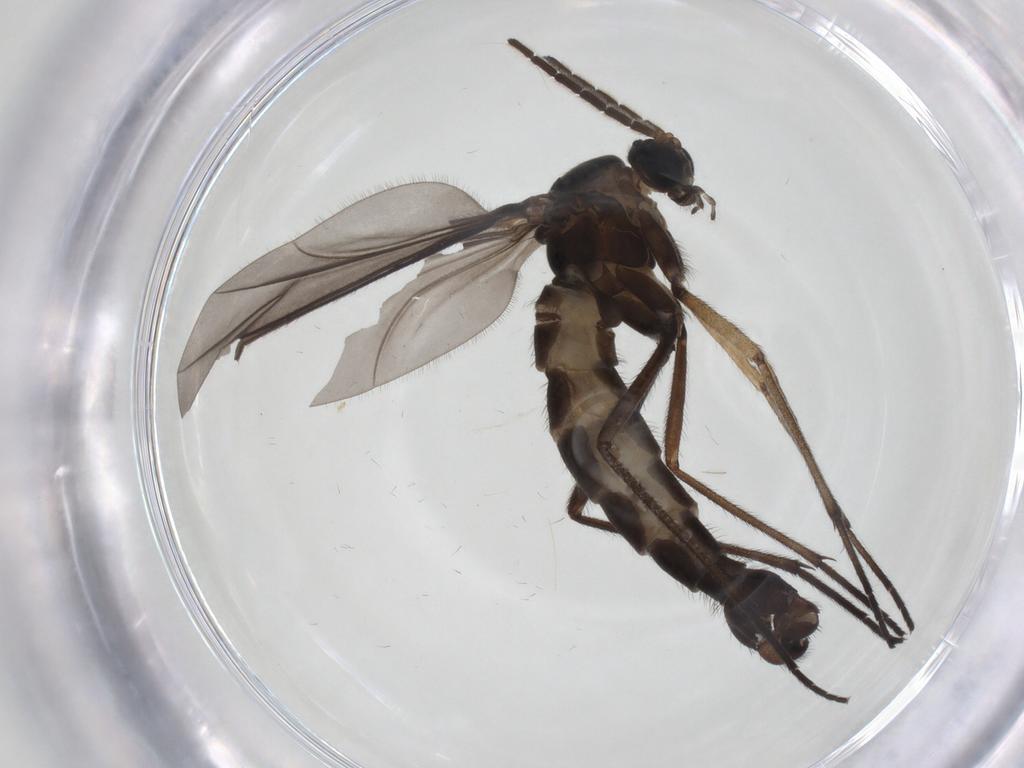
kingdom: Animalia
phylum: Arthropoda
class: Insecta
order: Diptera
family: Sciaridae
